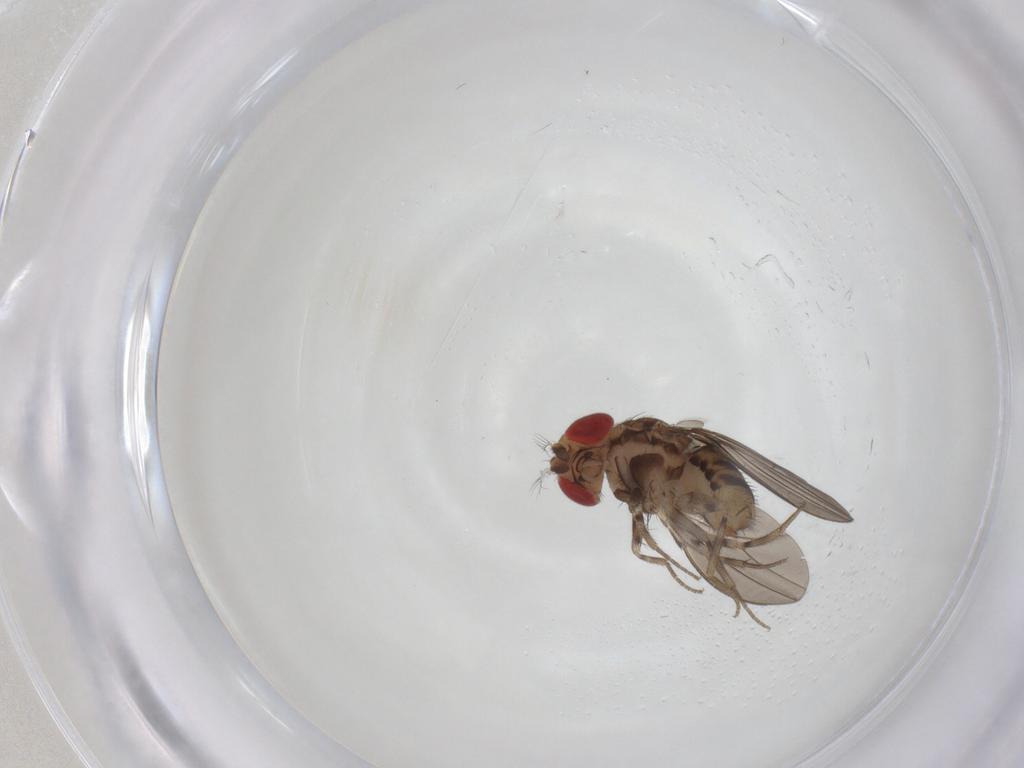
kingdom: Animalia
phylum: Arthropoda
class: Insecta
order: Diptera
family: Drosophilidae
